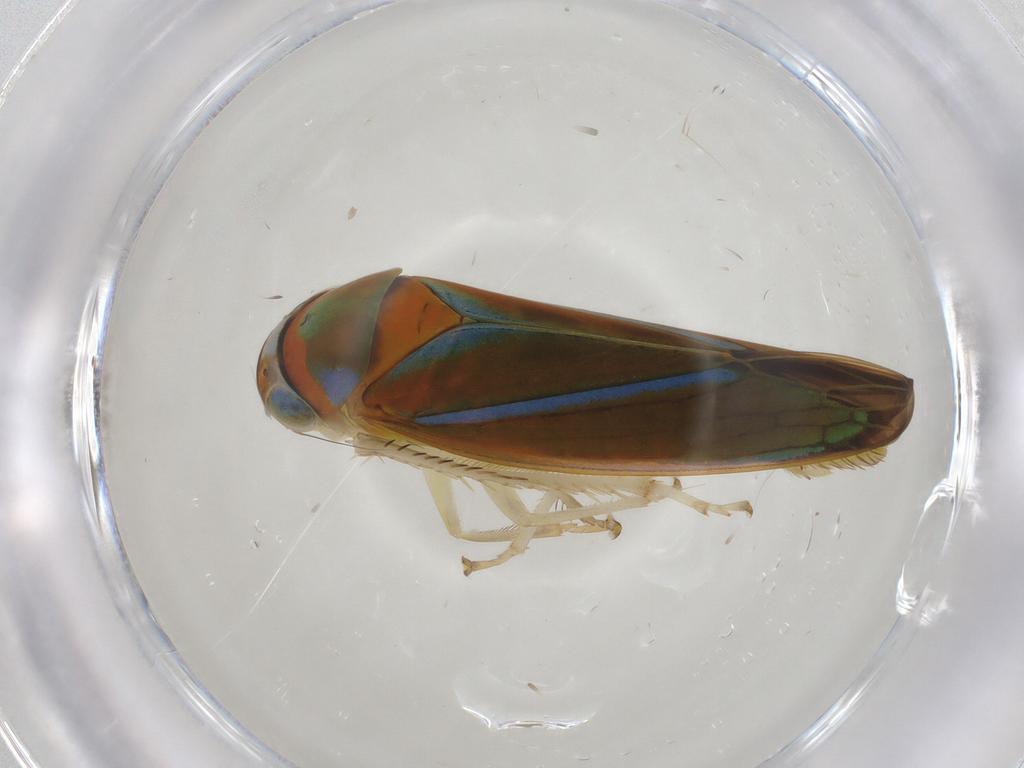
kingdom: Animalia
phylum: Arthropoda
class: Insecta
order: Hemiptera
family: Cicadellidae
